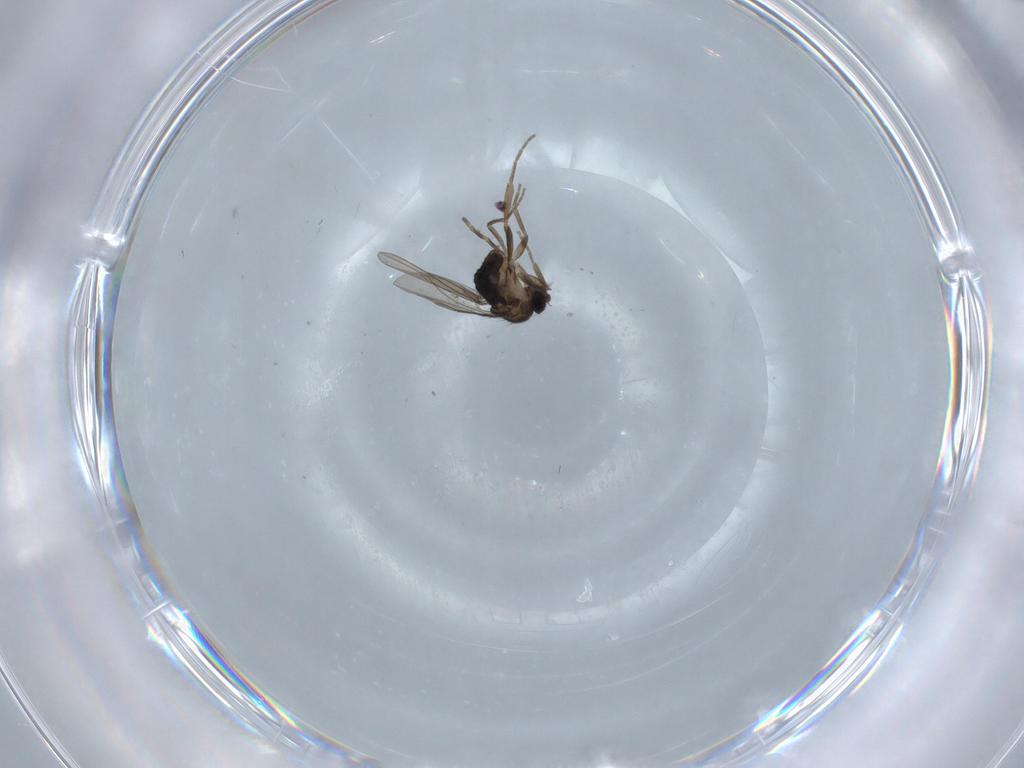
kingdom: Animalia
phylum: Arthropoda
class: Insecta
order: Diptera
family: Phoridae
